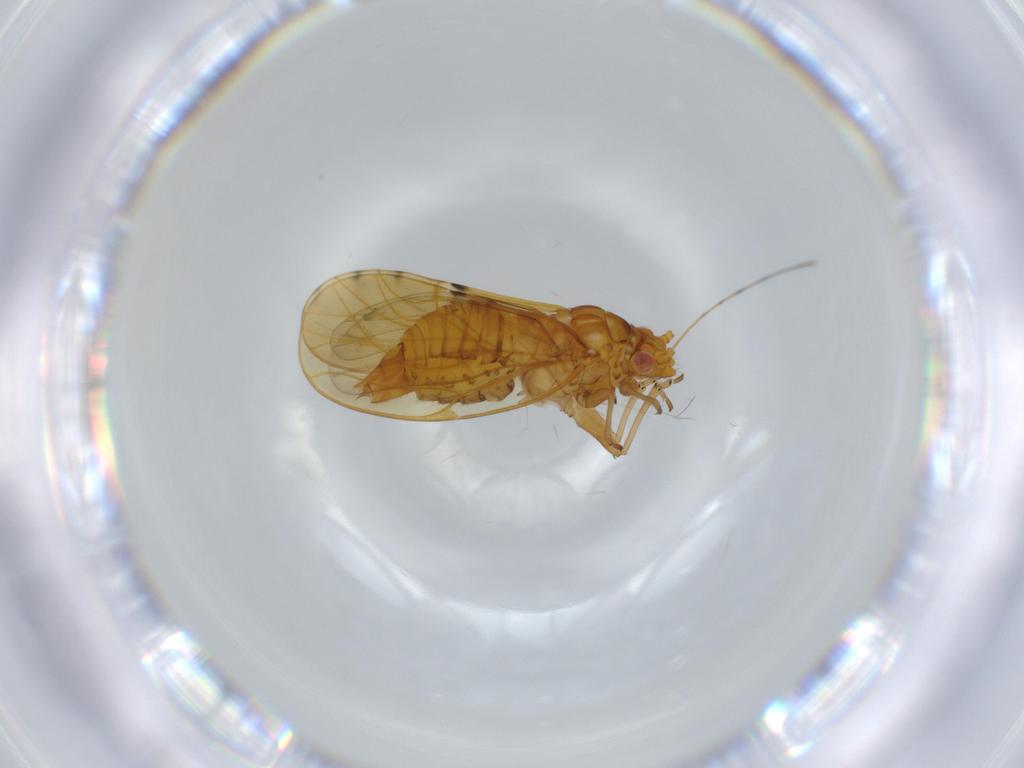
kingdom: Animalia
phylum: Arthropoda
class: Insecta
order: Hemiptera
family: Psylloidea_incertae_sedis
